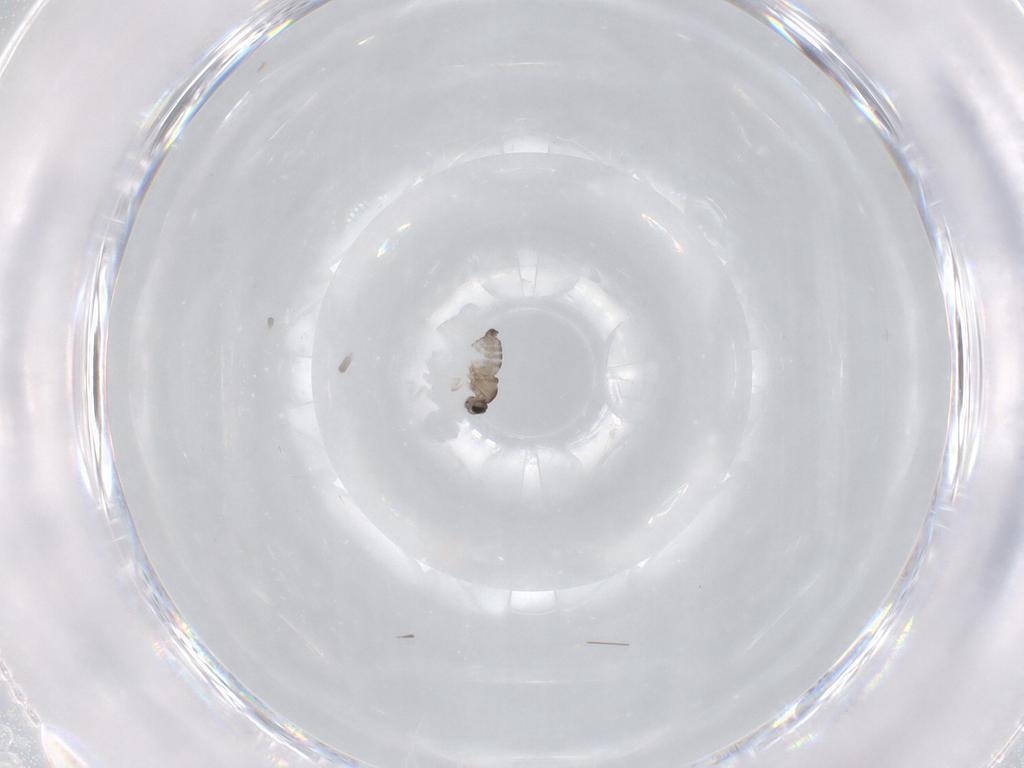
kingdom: Animalia
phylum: Arthropoda
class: Insecta
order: Diptera
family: Cecidomyiidae
